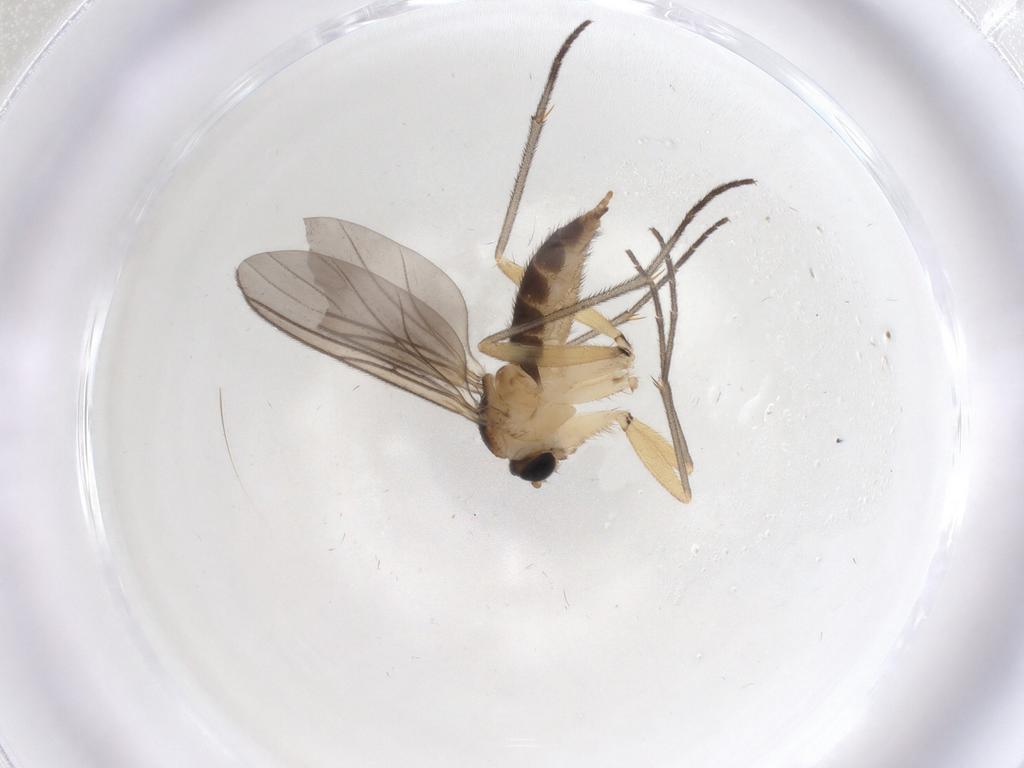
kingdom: Animalia
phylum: Arthropoda
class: Insecta
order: Diptera
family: Sciaridae
